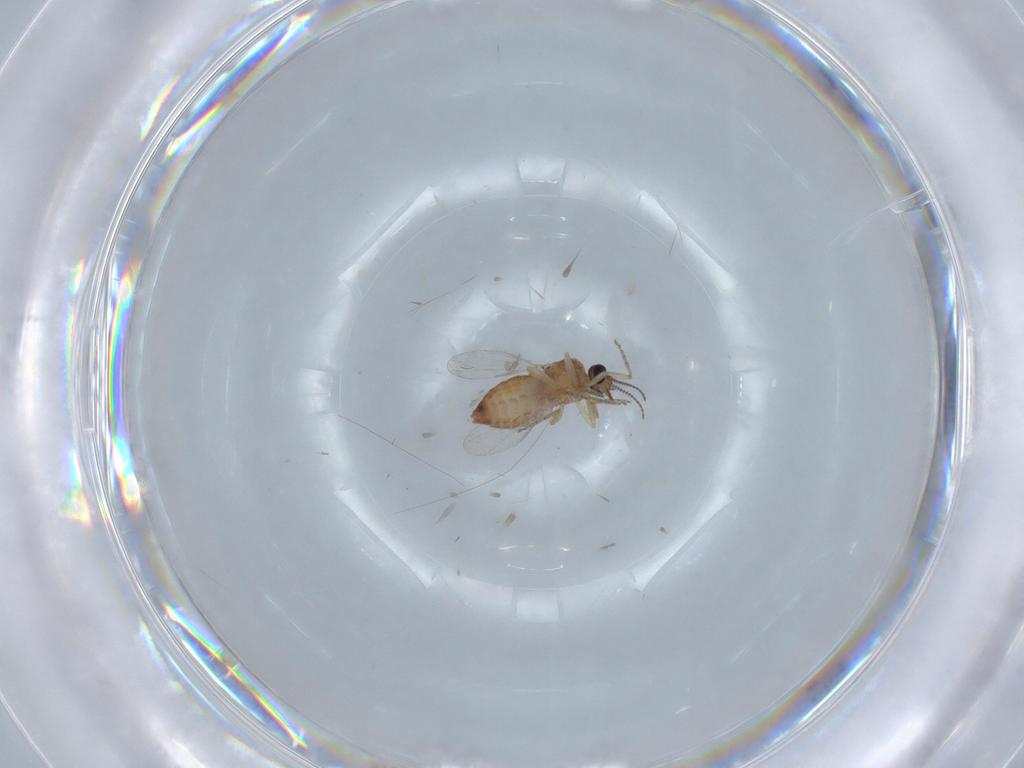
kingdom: Animalia
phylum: Arthropoda
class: Insecta
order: Diptera
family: Ceratopogonidae
